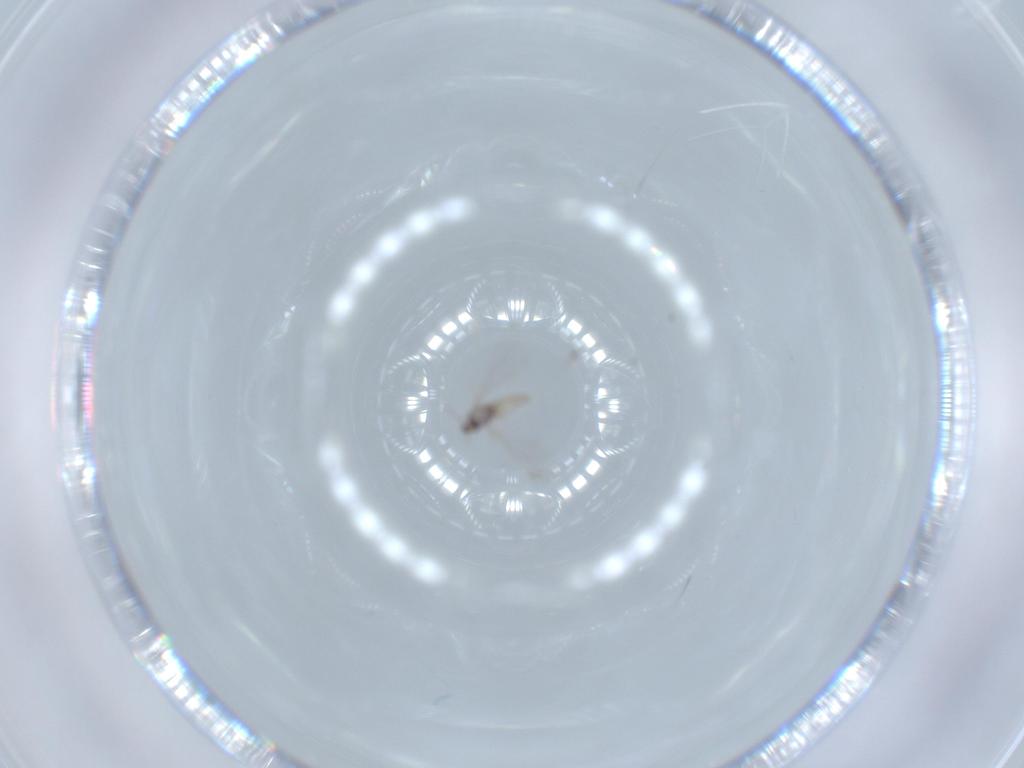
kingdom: Animalia
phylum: Arthropoda
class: Insecta
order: Diptera
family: Cecidomyiidae
